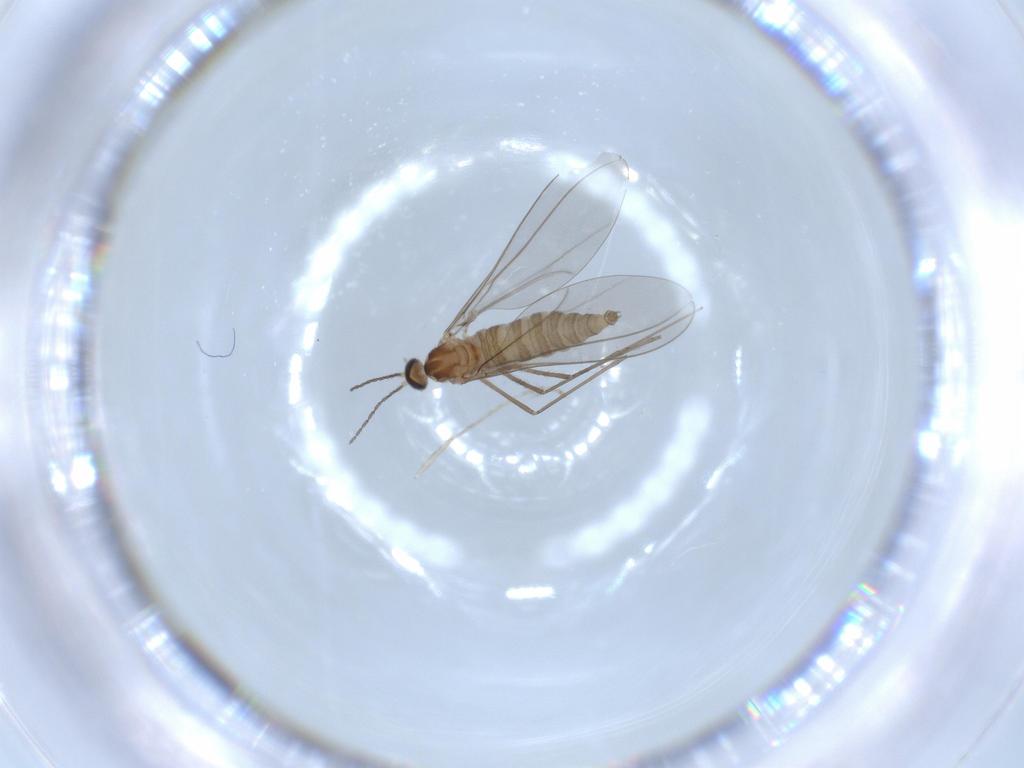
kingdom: Animalia
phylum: Arthropoda
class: Insecta
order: Diptera
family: Cecidomyiidae
